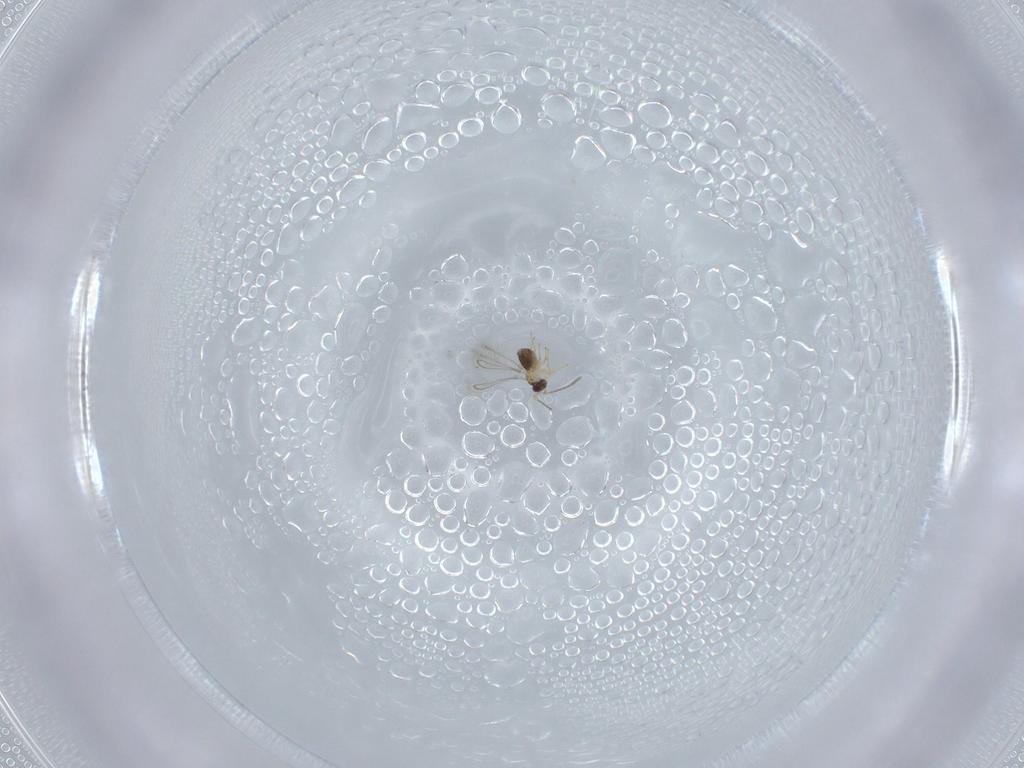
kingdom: Animalia
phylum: Arthropoda
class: Insecta
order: Hymenoptera
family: Mymaridae
